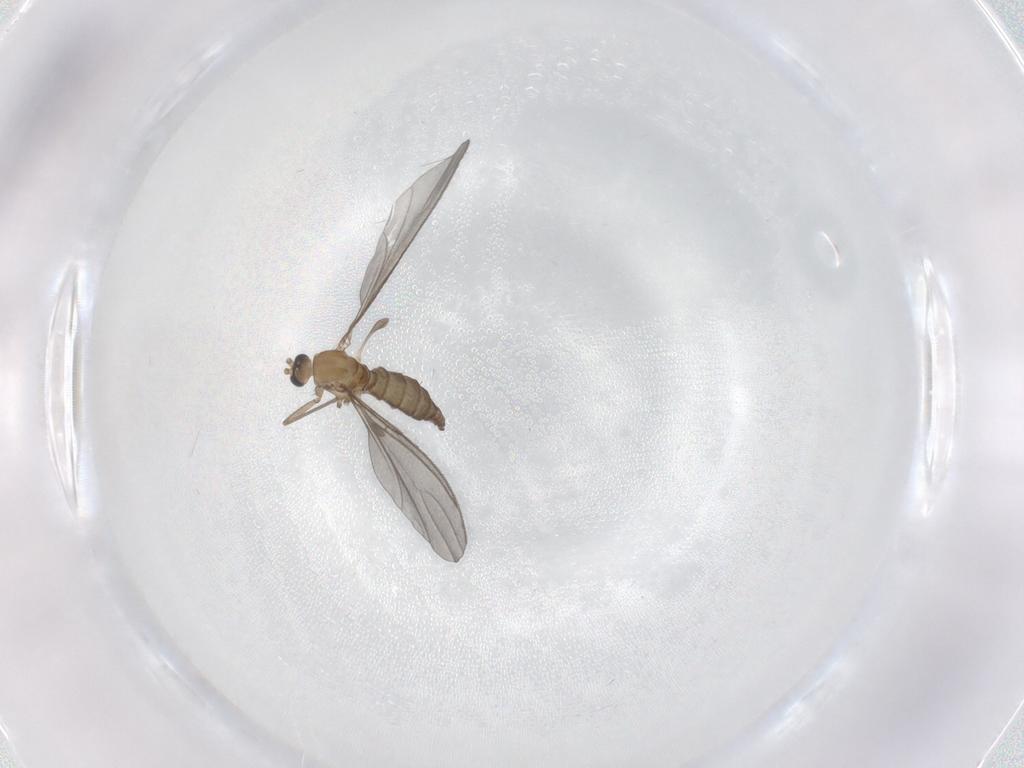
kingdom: Animalia
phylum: Arthropoda
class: Insecta
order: Diptera
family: Sciaridae
